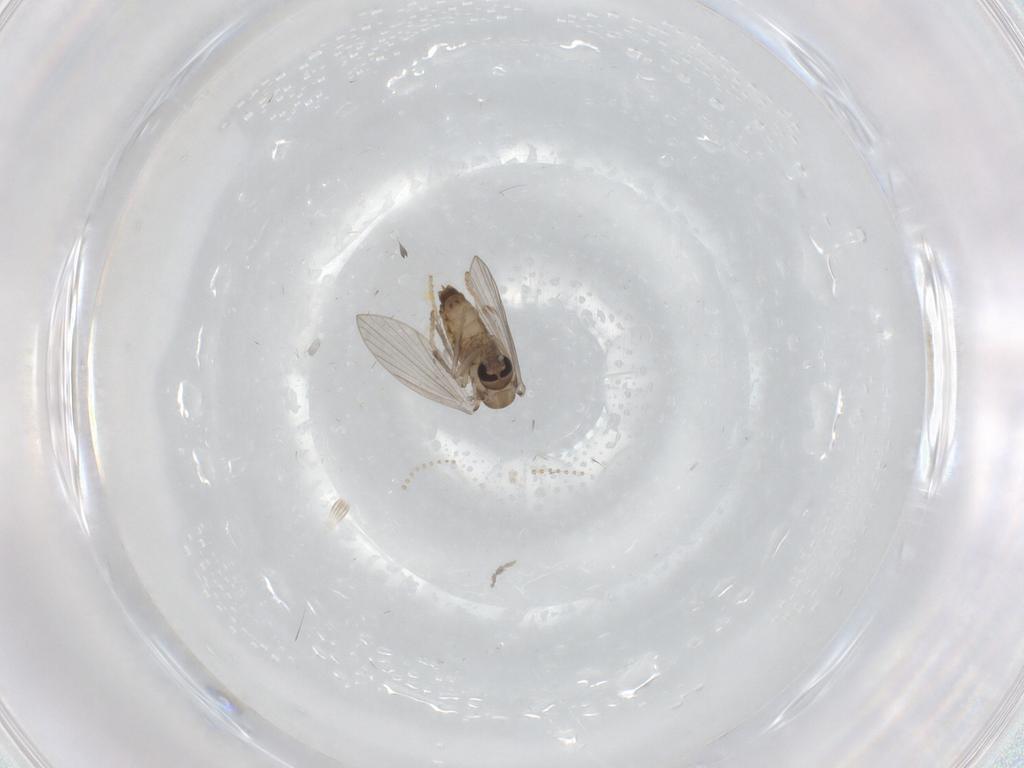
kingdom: Animalia
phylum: Arthropoda
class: Insecta
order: Diptera
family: Psychodidae
